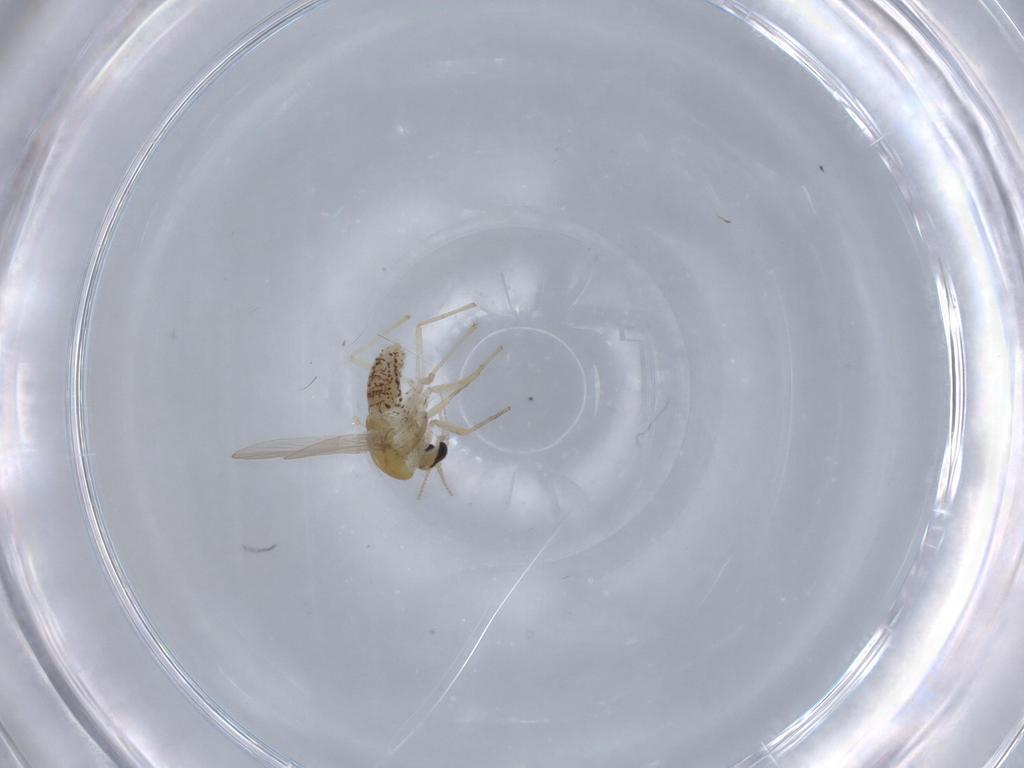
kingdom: Animalia
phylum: Arthropoda
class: Insecta
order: Diptera
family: Chironomidae
